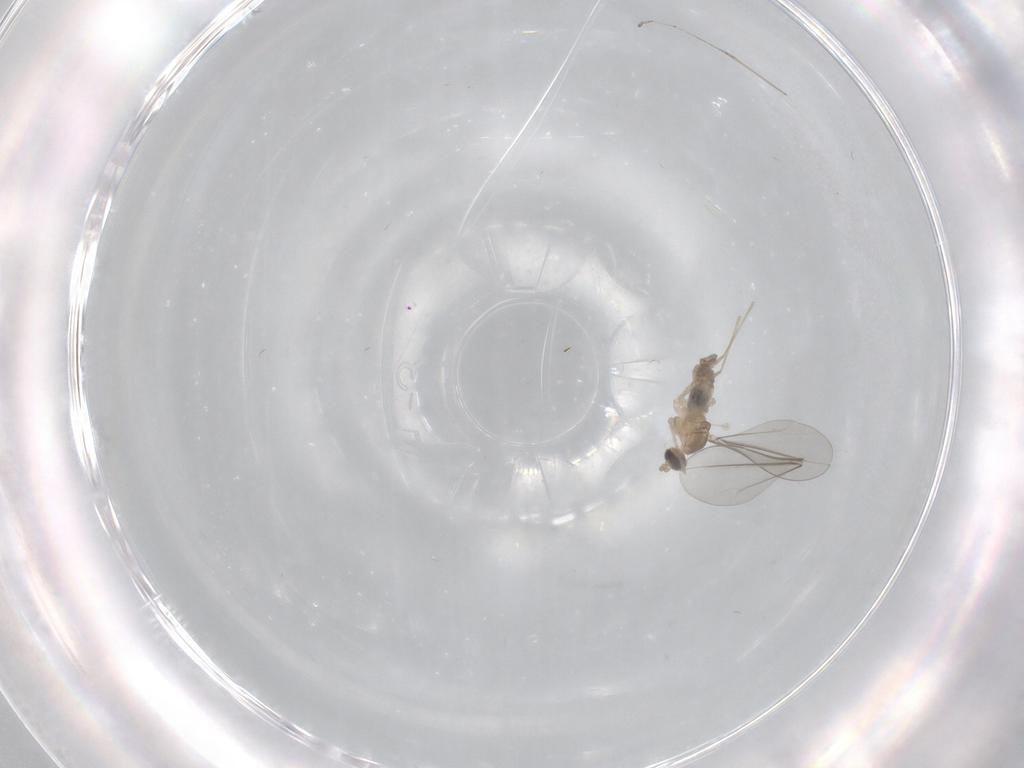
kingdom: Animalia
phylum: Arthropoda
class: Insecta
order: Diptera
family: Cecidomyiidae
